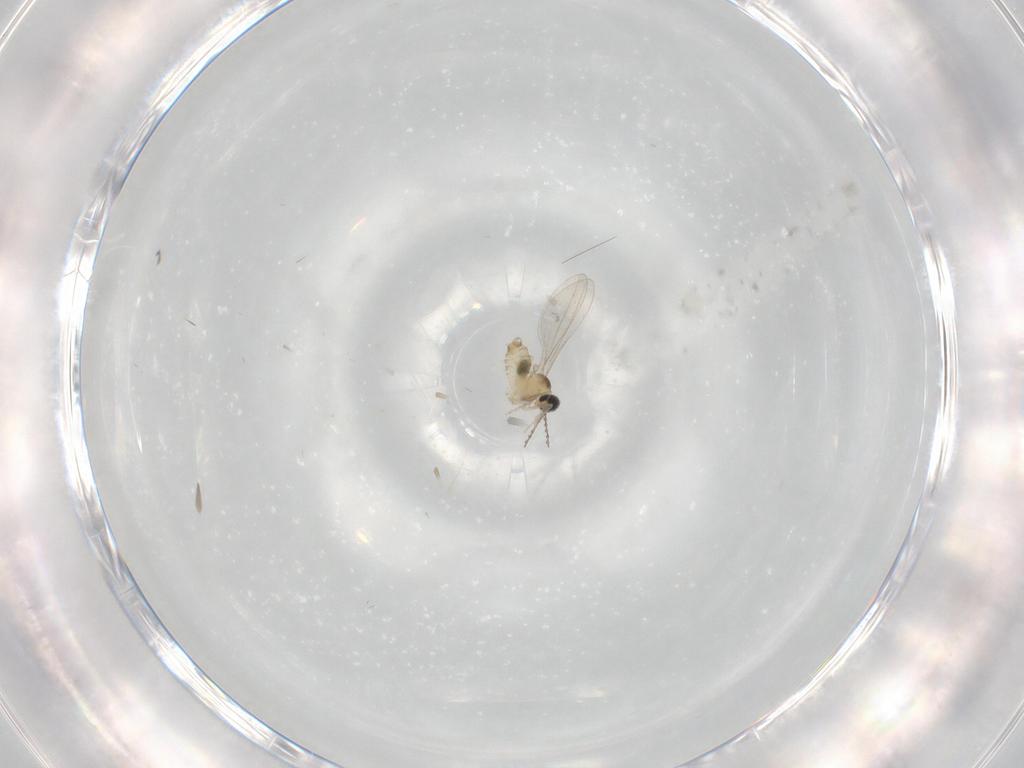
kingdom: Animalia
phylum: Arthropoda
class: Insecta
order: Diptera
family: Cecidomyiidae
